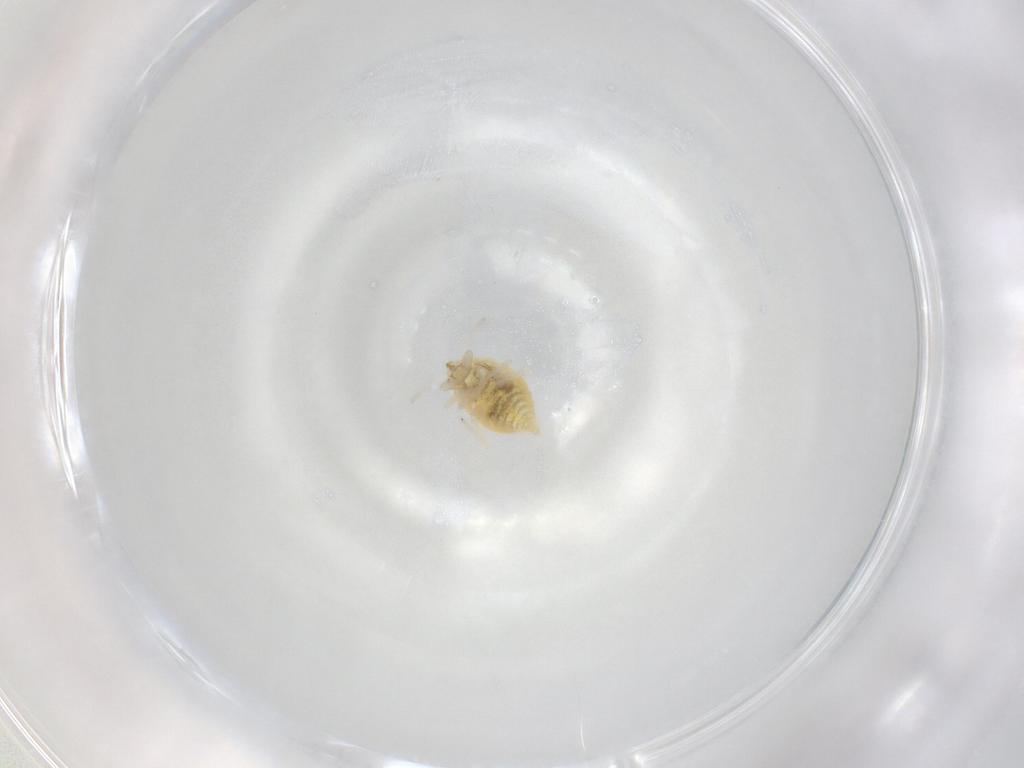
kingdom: Animalia
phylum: Arthropoda
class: Insecta
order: Neuroptera
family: Coniopterygidae
